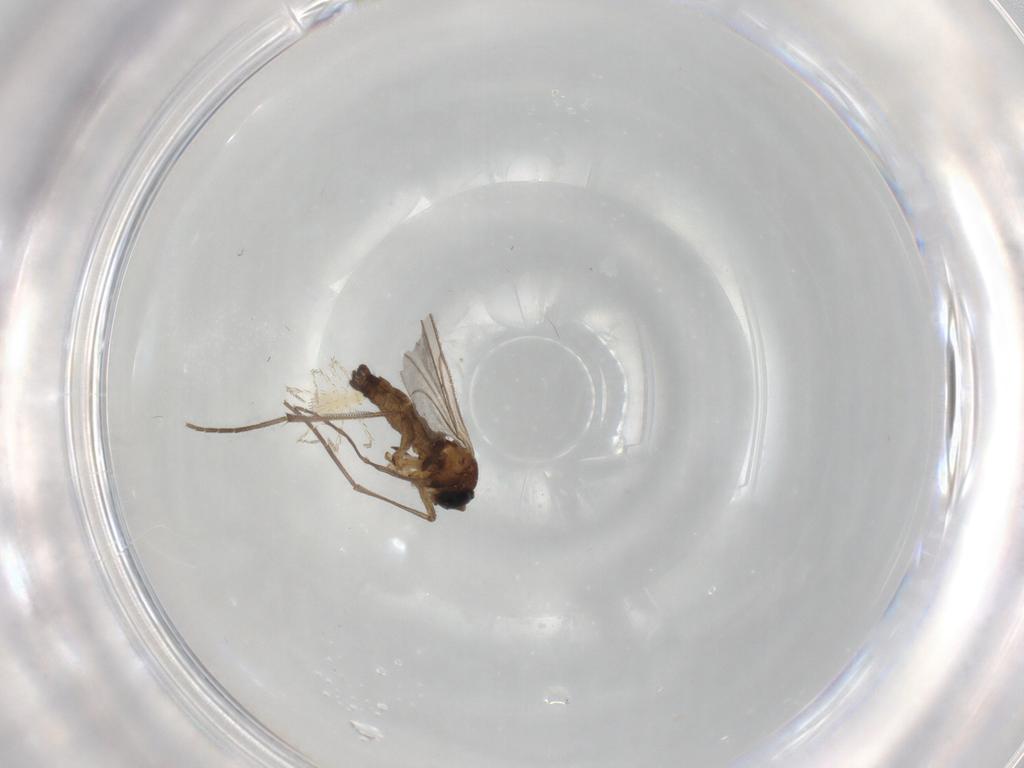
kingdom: Animalia
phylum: Arthropoda
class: Insecta
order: Diptera
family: Sciaridae
